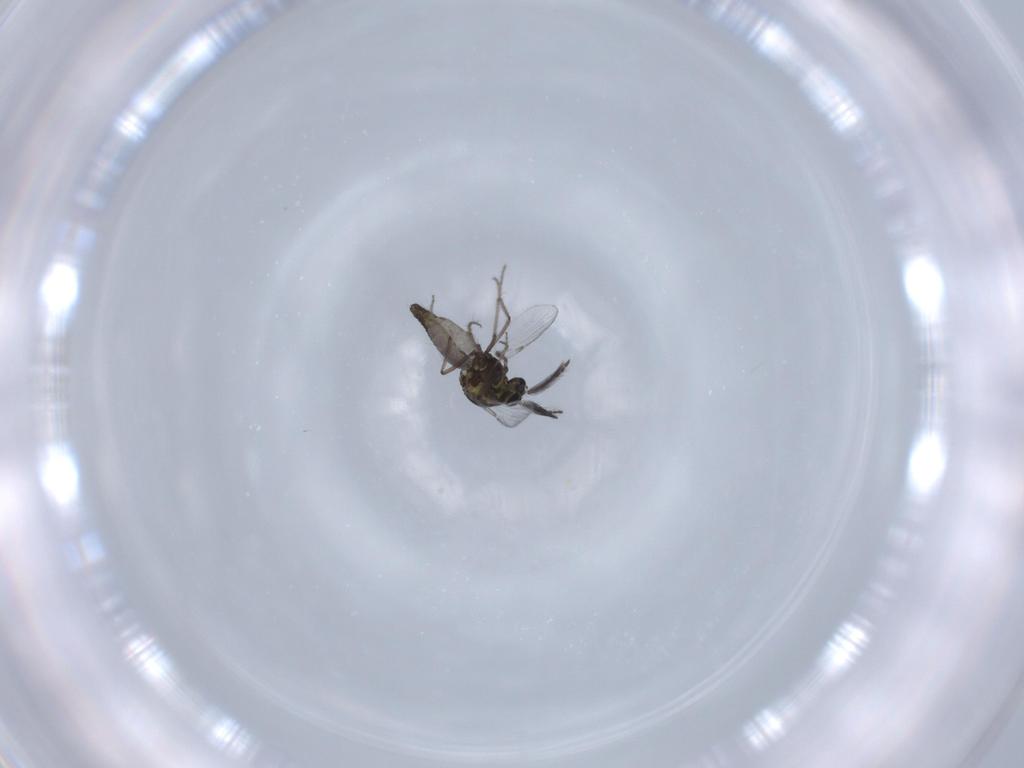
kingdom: Animalia
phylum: Arthropoda
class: Insecta
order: Diptera
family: Ceratopogonidae
